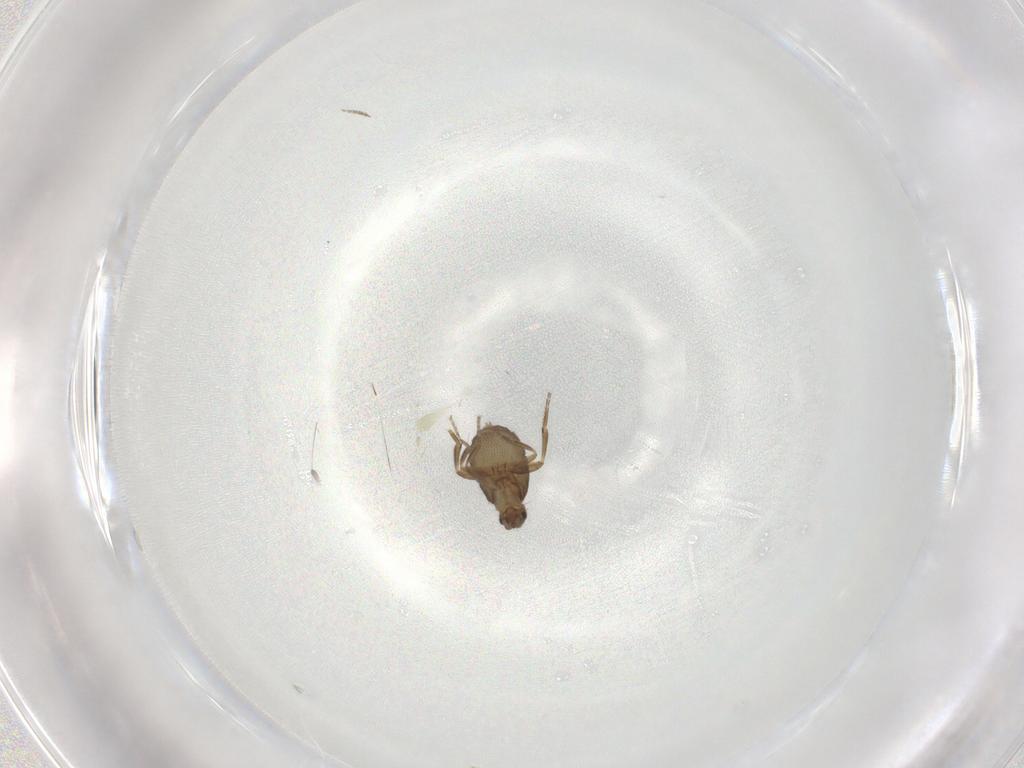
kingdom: Animalia
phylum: Arthropoda
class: Insecta
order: Diptera
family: Phoridae
